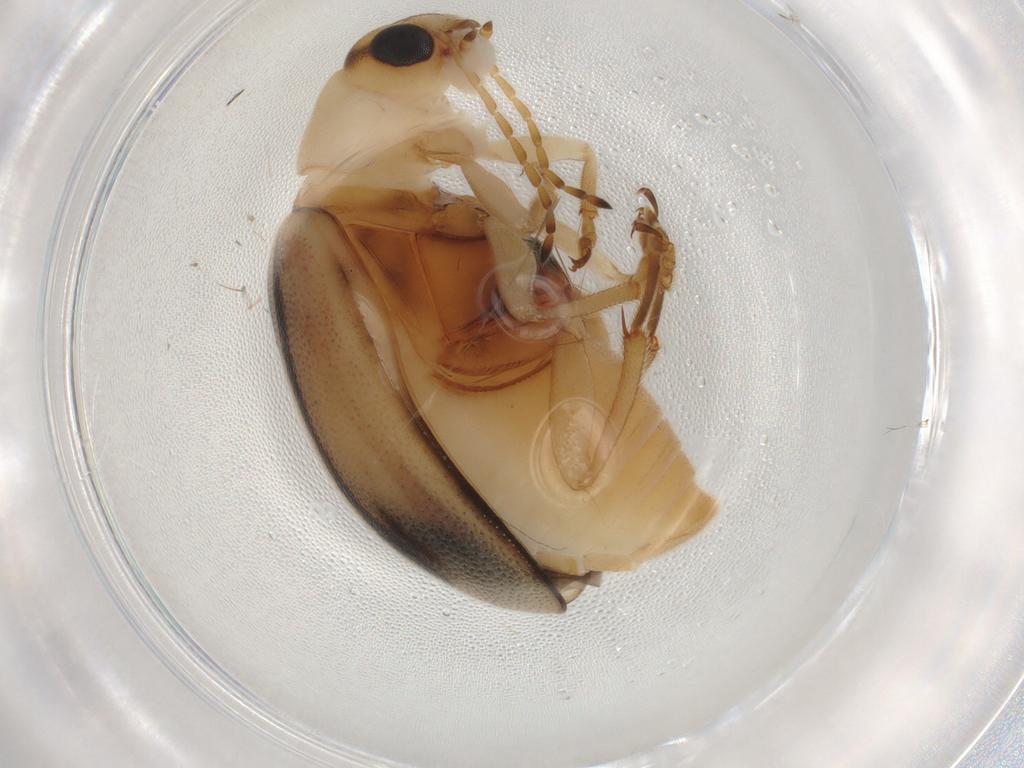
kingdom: Animalia
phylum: Arthropoda
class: Insecta
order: Coleoptera
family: Chrysomelidae
